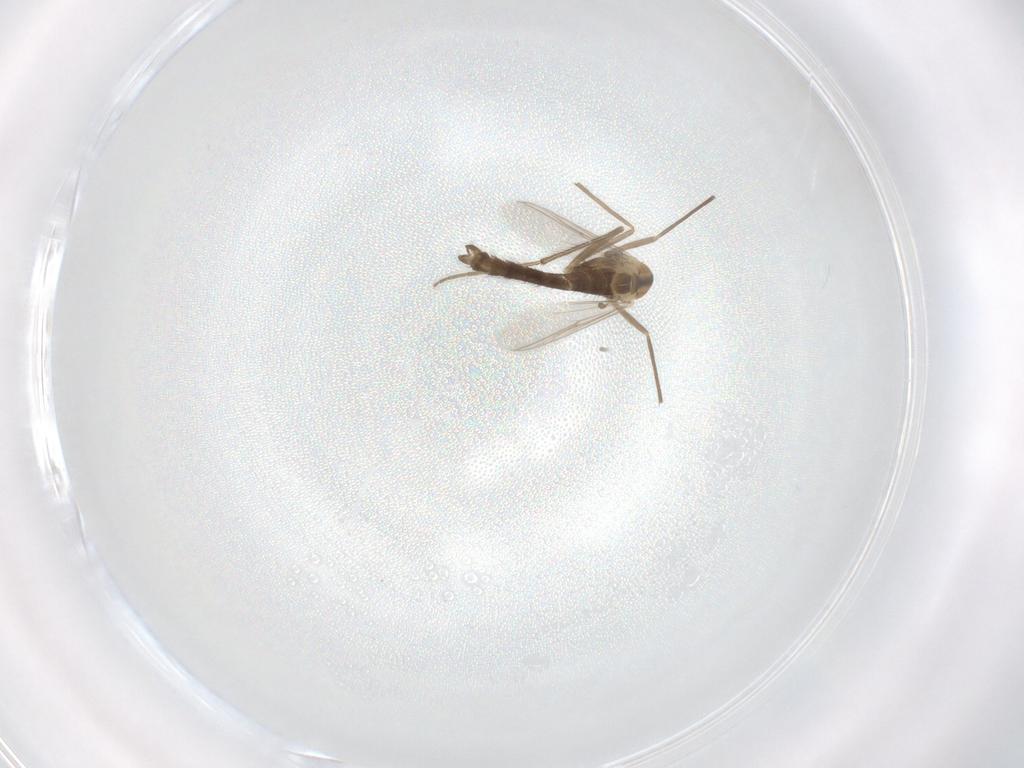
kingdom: Animalia
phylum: Arthropoda
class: Insecta
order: Diptera
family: Chironomidae
